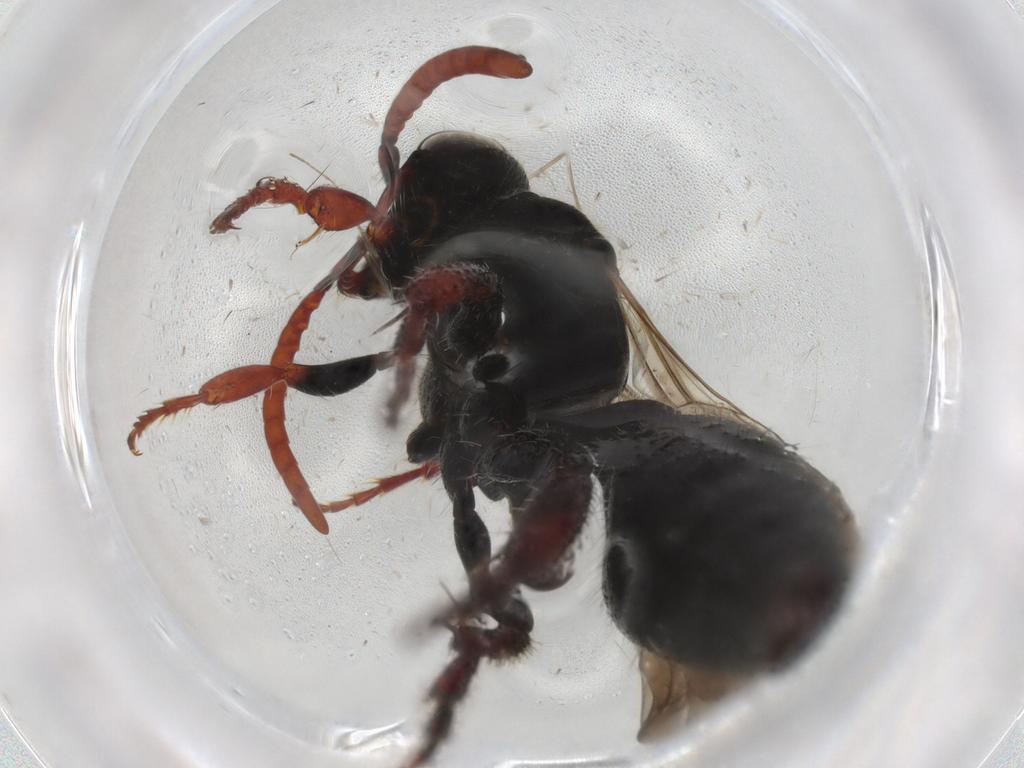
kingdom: Animalia
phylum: Arthropoda
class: Insecta
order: Hymenoptera
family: Tiphiidae
